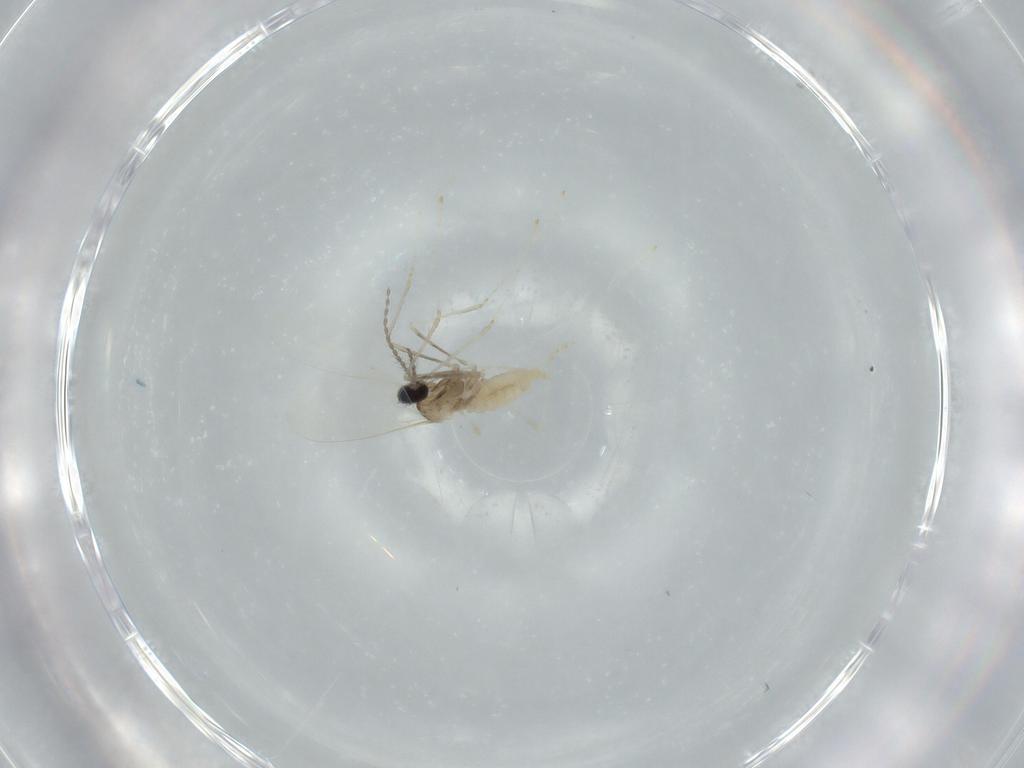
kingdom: Animalia
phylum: Arthropoda
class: Insecta
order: Diptera
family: Cecidomyiidae
